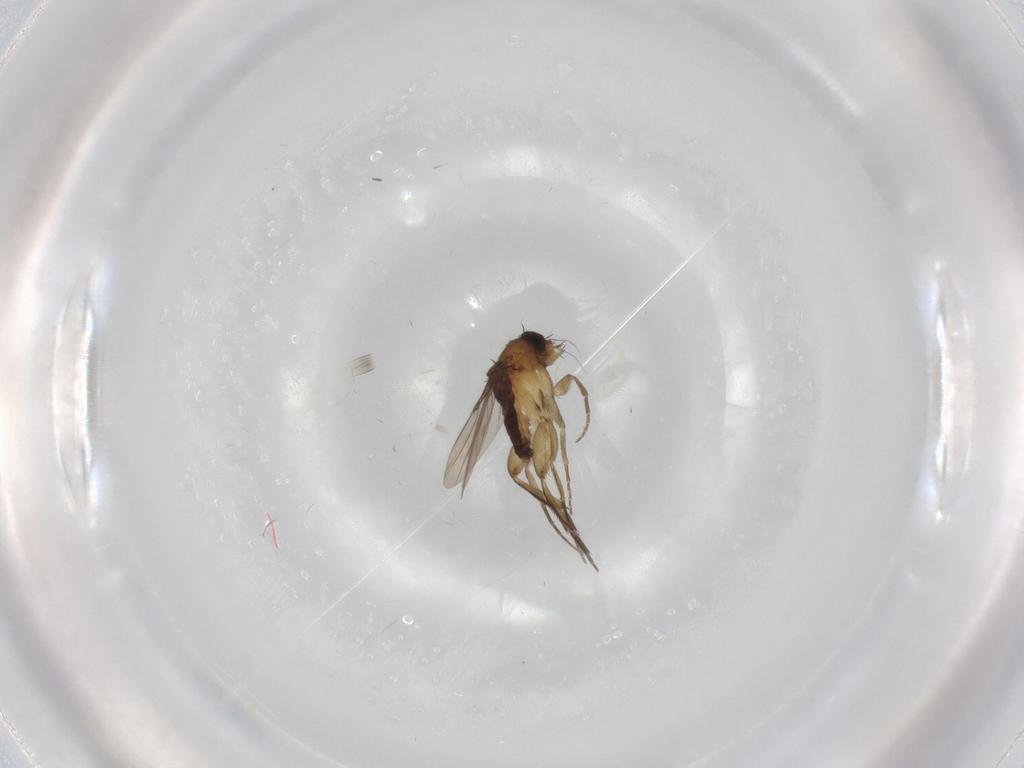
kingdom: Animalia
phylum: Arthropoda
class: Insecta
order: Diptera
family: Phoridae
